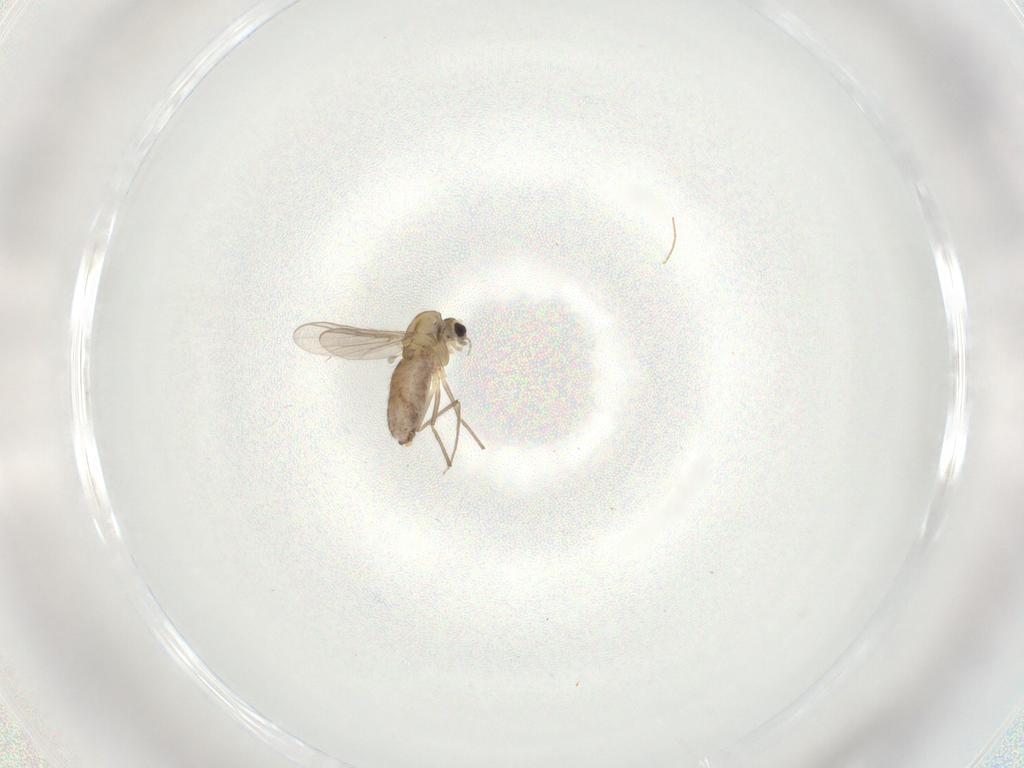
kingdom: Animalia
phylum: Arthropoda
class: Insecta
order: Diptera
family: Chironomidae
